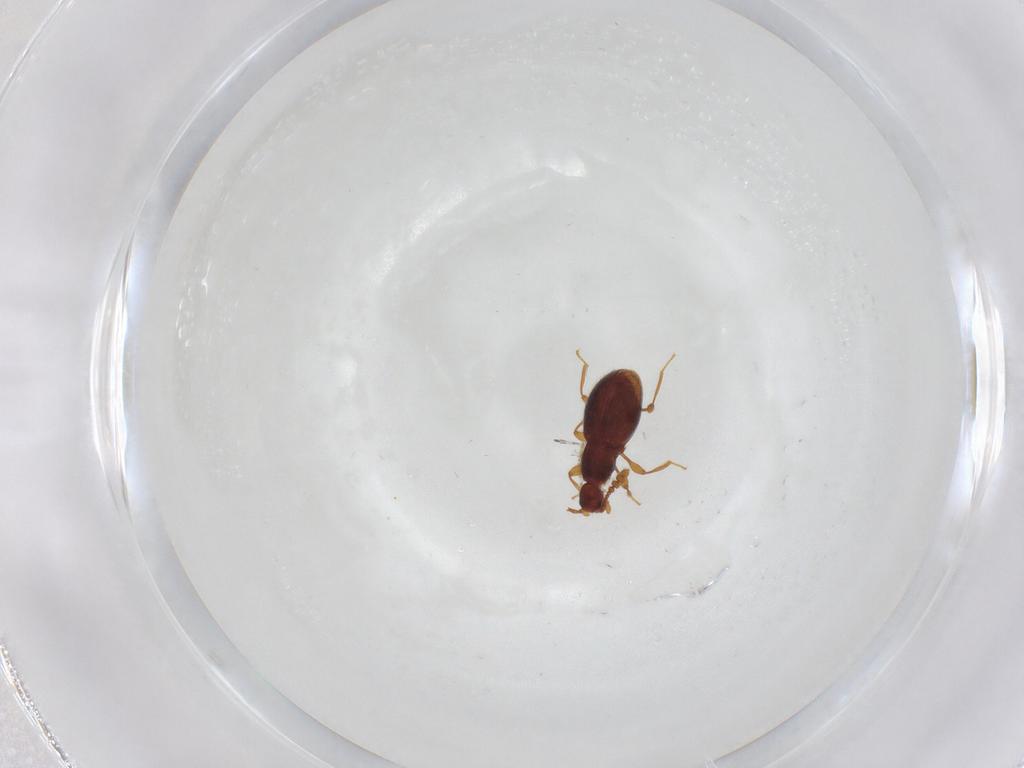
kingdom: Animalia
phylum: Arthropoda
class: Insecta
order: Coleoptera
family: Staphylinidae
